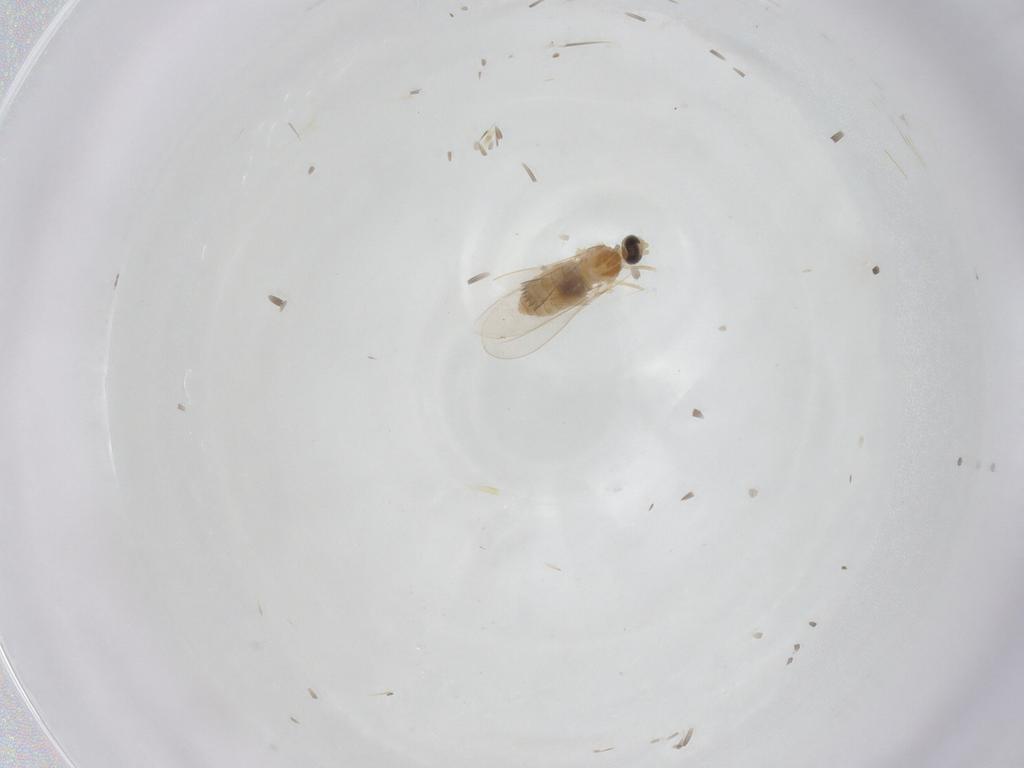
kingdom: Animalia
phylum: Arthropoda
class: Insecta
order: Diptera
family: Cecidomyiidae
